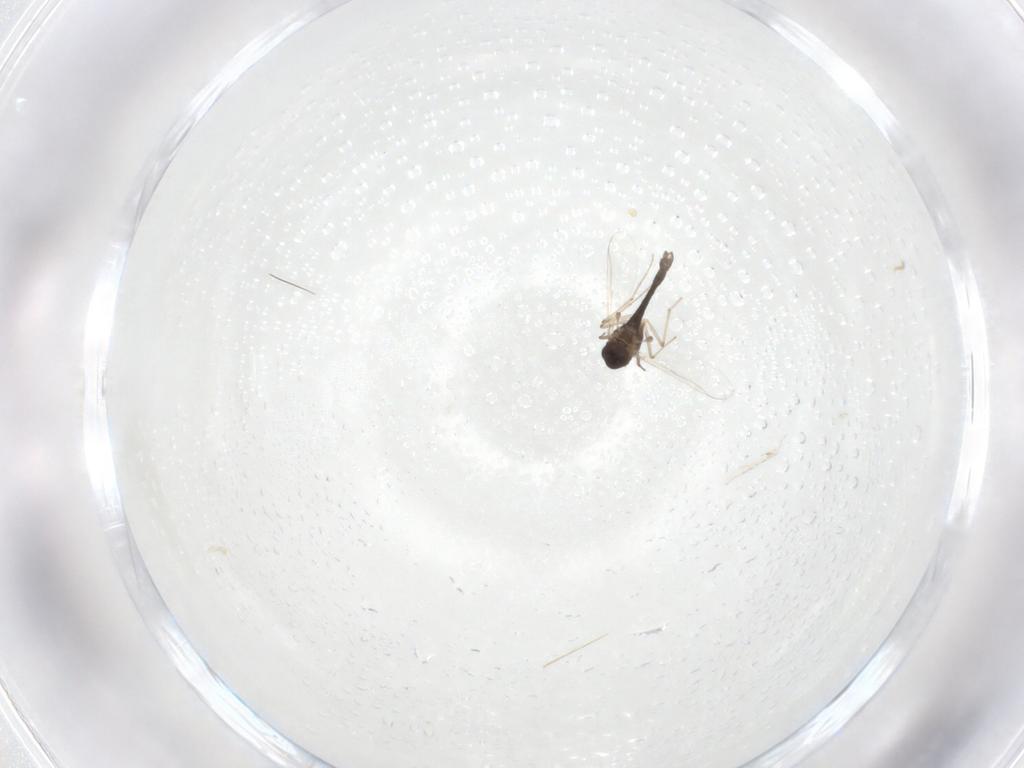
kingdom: Animalia
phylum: Arthropoda
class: Insecta
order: Diptera
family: Chironomidae
